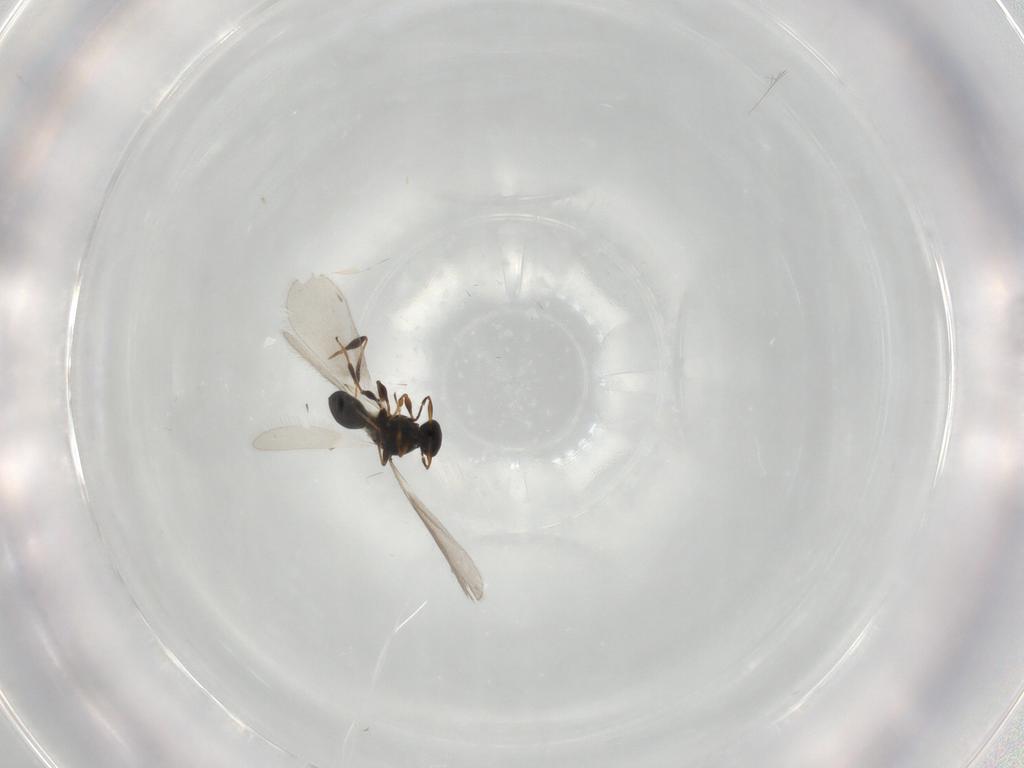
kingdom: Animalia
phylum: Arthropoda
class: Insecta
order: Hymenoptera
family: Platygastridae
